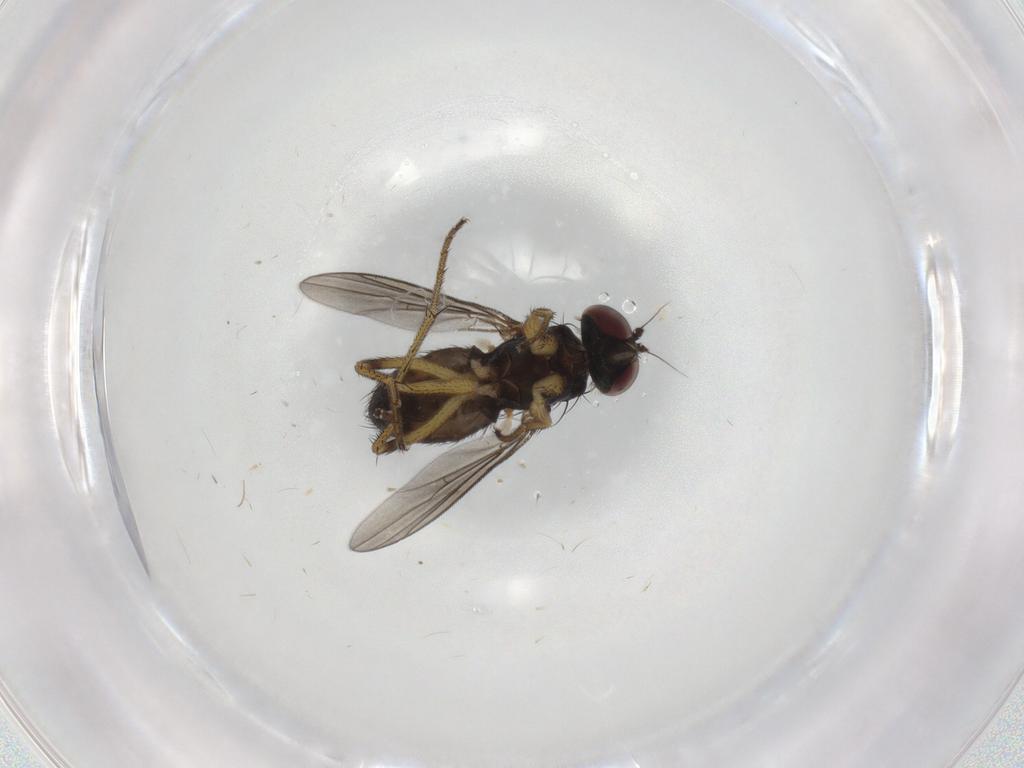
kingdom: Animalia
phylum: Arthropoda
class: Insecta
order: Diptera
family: Dolichopodidae
